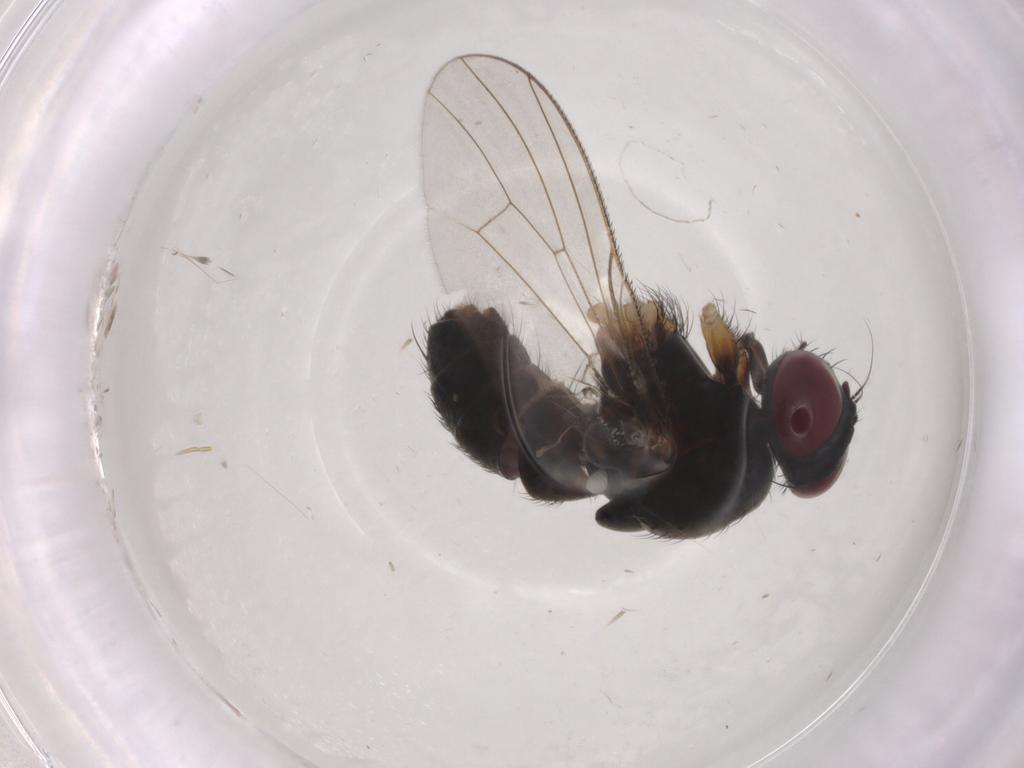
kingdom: Animalia
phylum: Arthropoda
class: Insecta
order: Diptera
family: Muscidae
